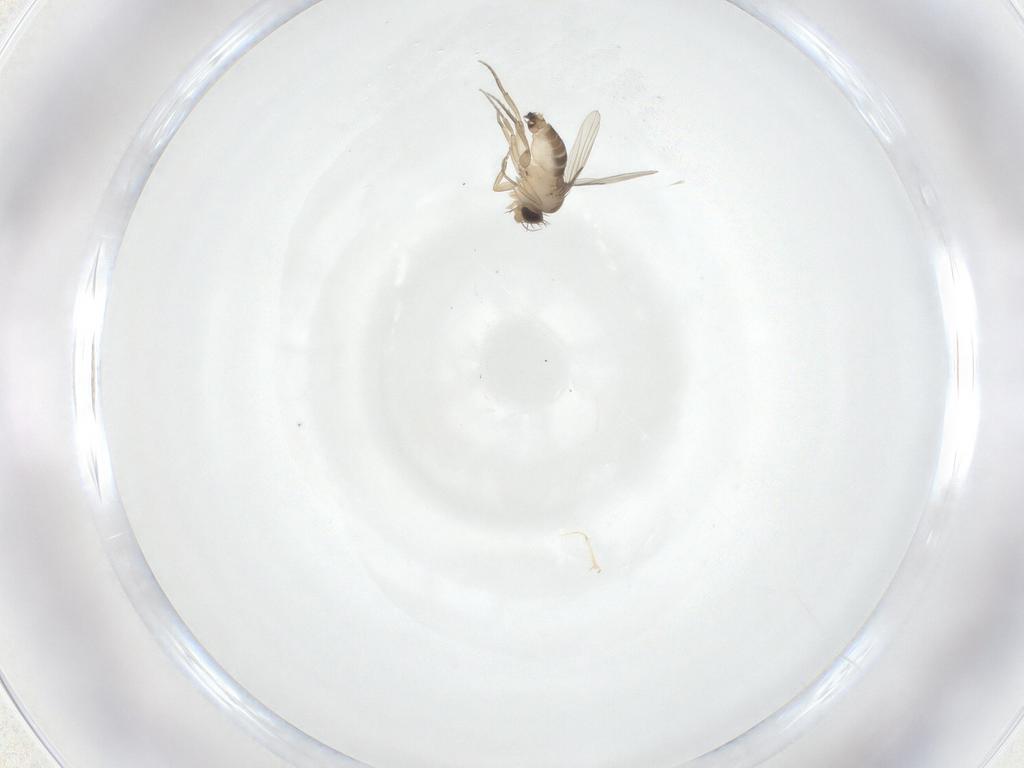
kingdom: Animalia
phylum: Arthropoda
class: Insecta
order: Diptera
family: Phoridae
